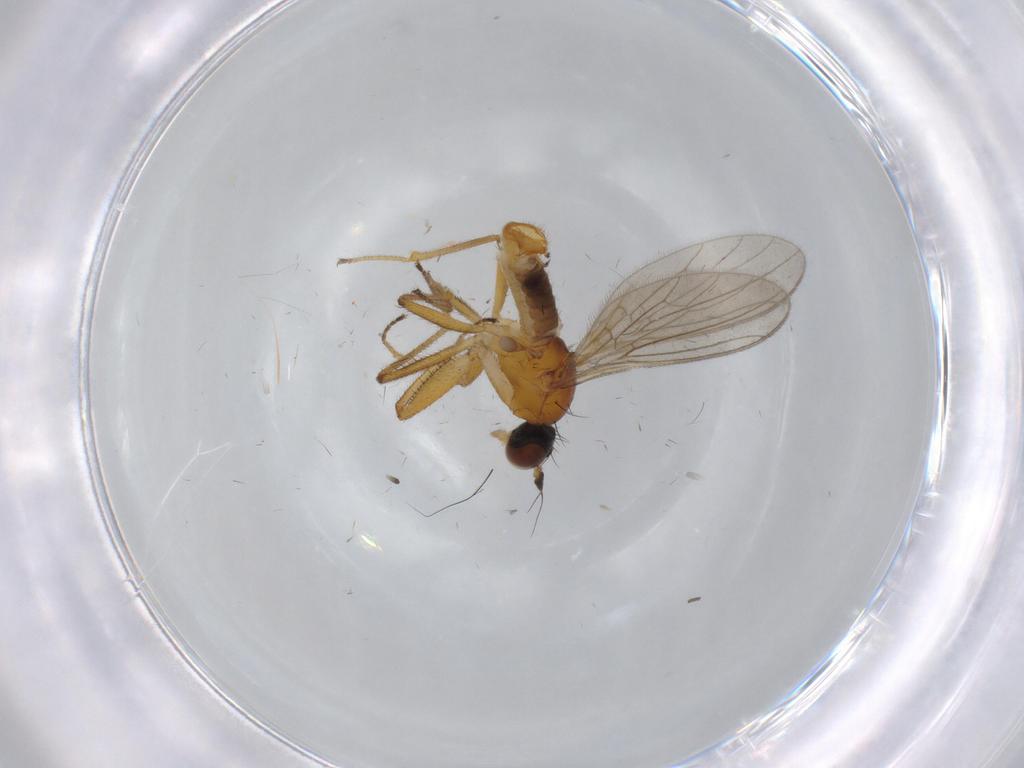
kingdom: Animalia
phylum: Arthropoda
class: Insecta
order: Diptera
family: Empididae
